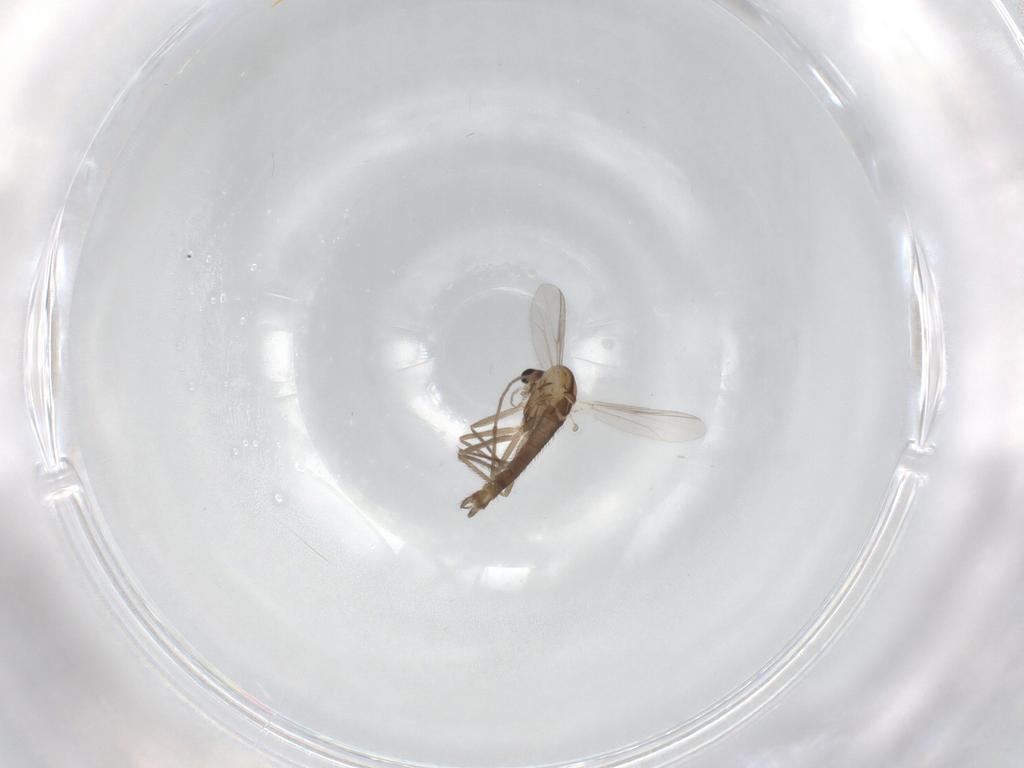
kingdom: Animalia
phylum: Arthropoda
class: Insecta
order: Diptera
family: Chironomidae
